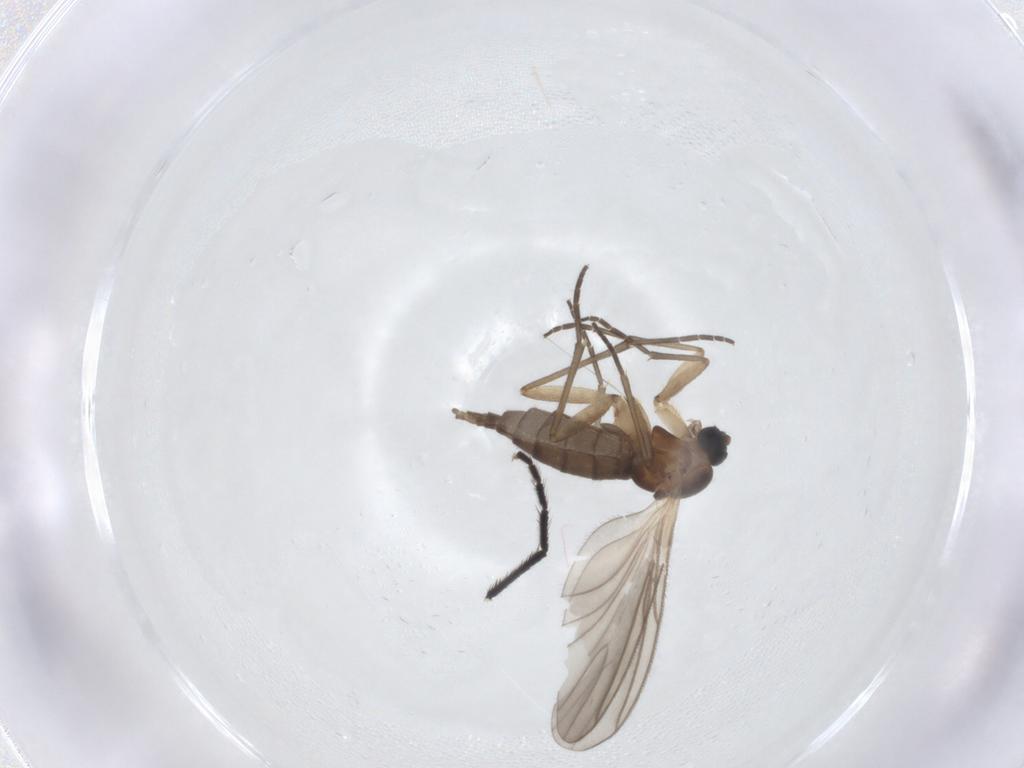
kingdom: Animalia
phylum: Arthropoda
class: Insecta
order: Diptera
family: Sciaridae
